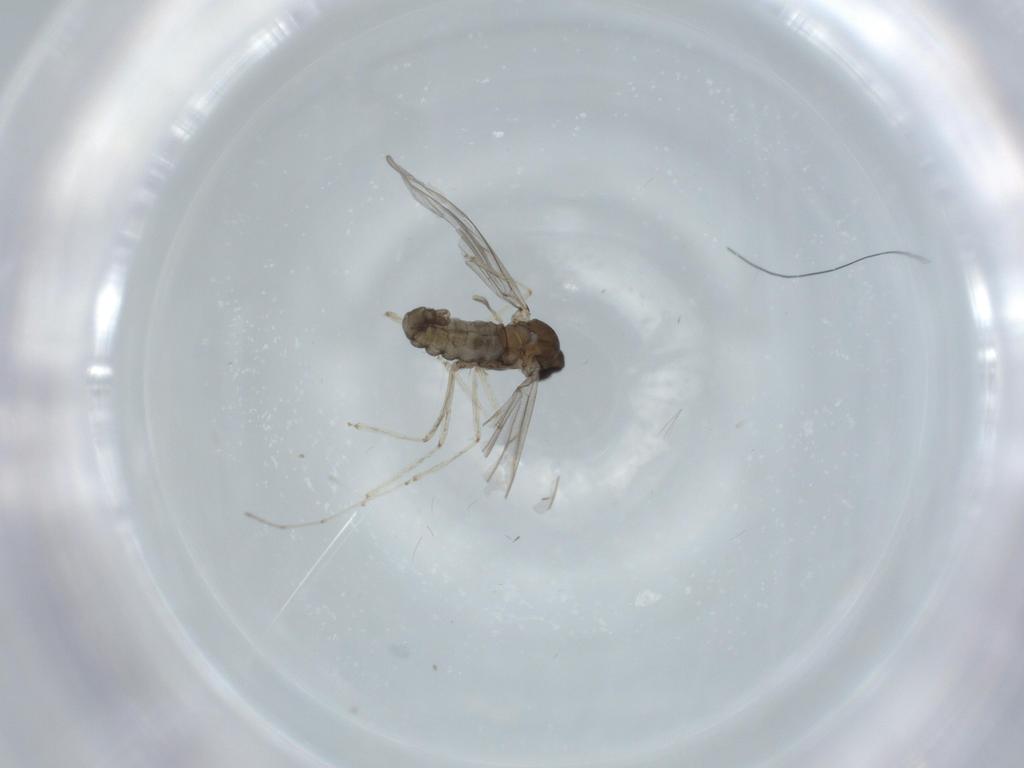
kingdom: Animalia
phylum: Arthropoda
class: Insecta
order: Diptera
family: Cecidomyiidae
